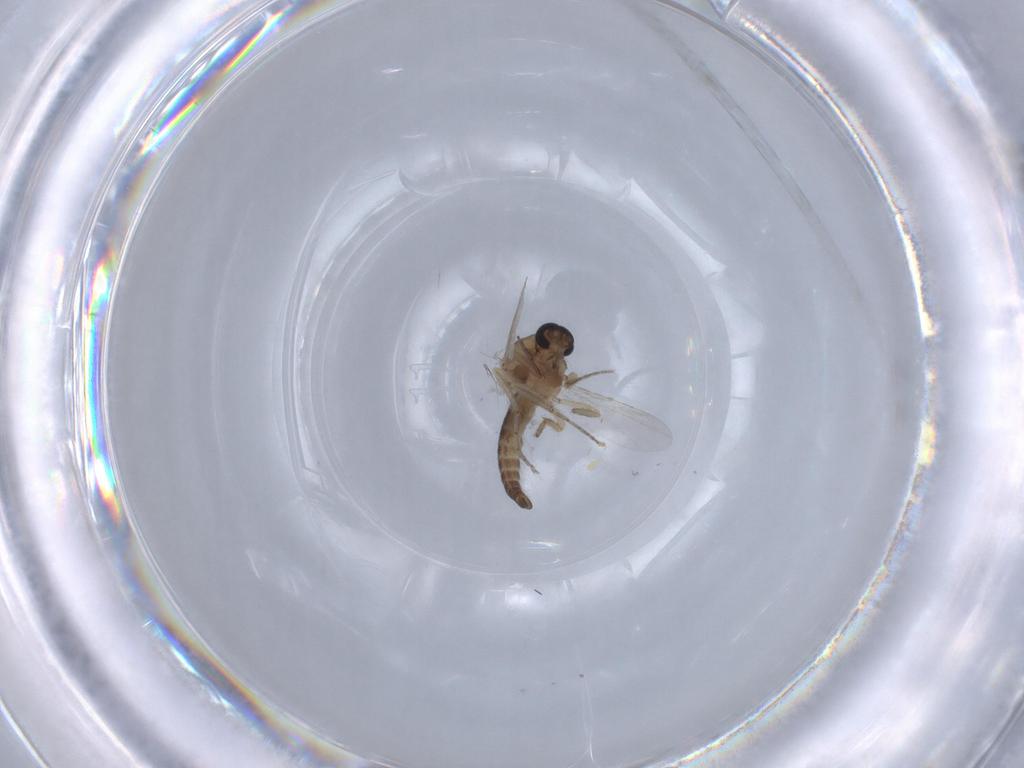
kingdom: Animalia
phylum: Arthropoda
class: Insecta
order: Diptera
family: Ceratopogonidae
